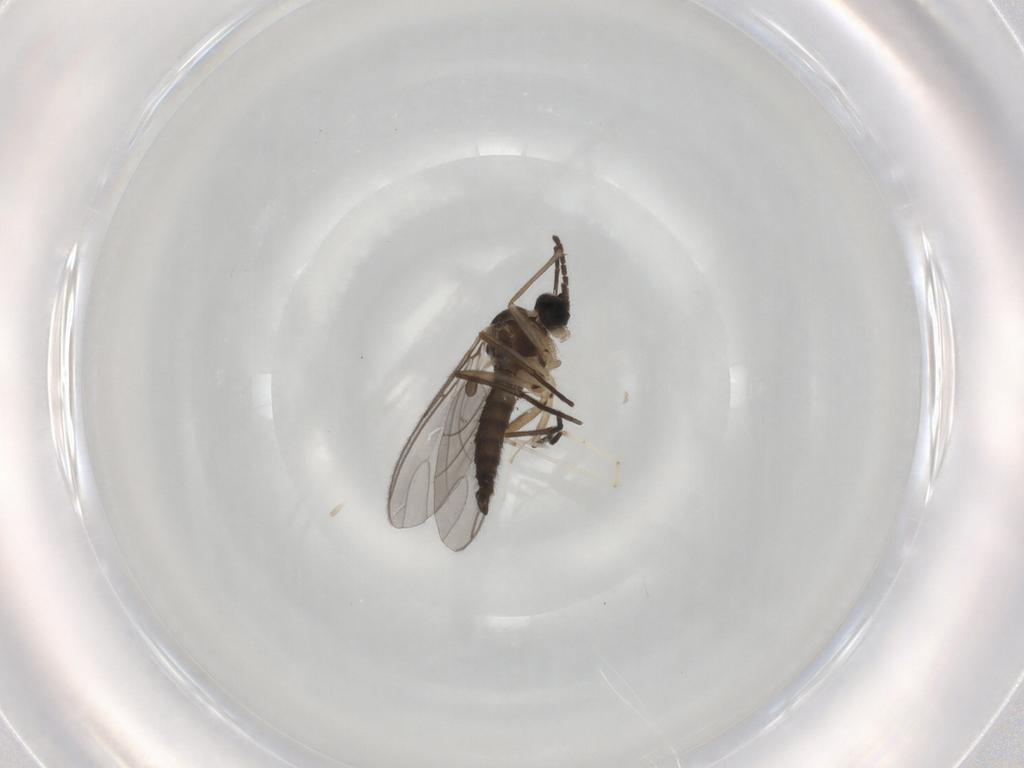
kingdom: Animalia
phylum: Arthropoda
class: Insecta
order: Diptera
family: Sciaridae
